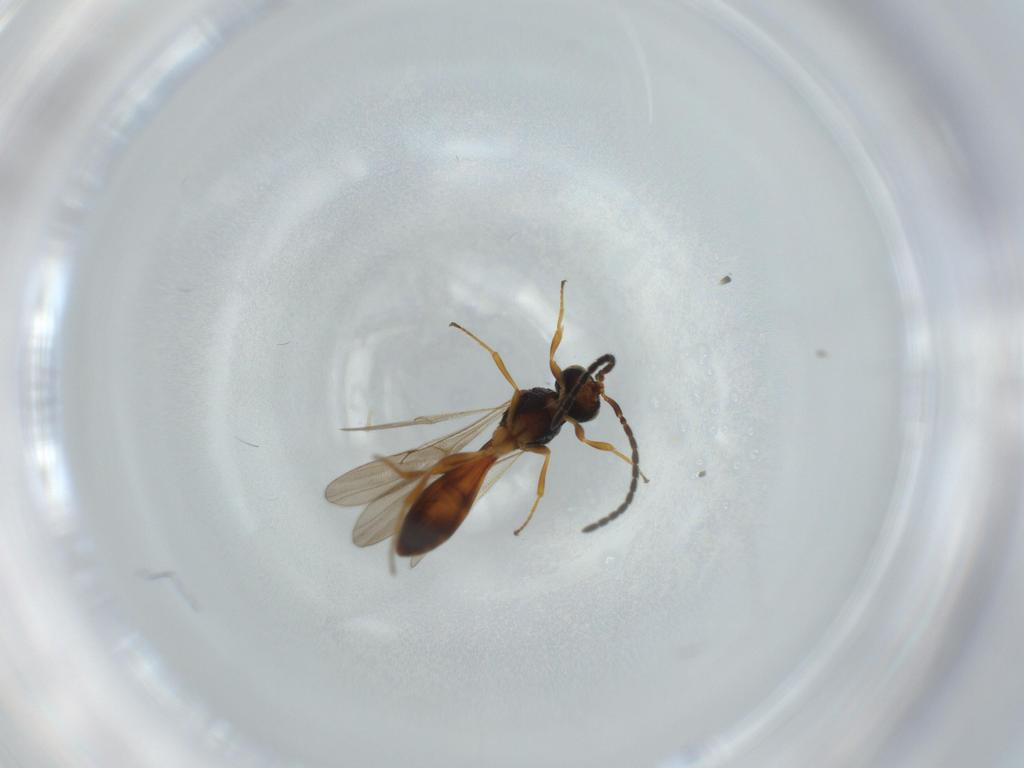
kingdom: Animalia
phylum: Arthropoda
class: Insecta
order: Hymenoptera
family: Scelionidae
